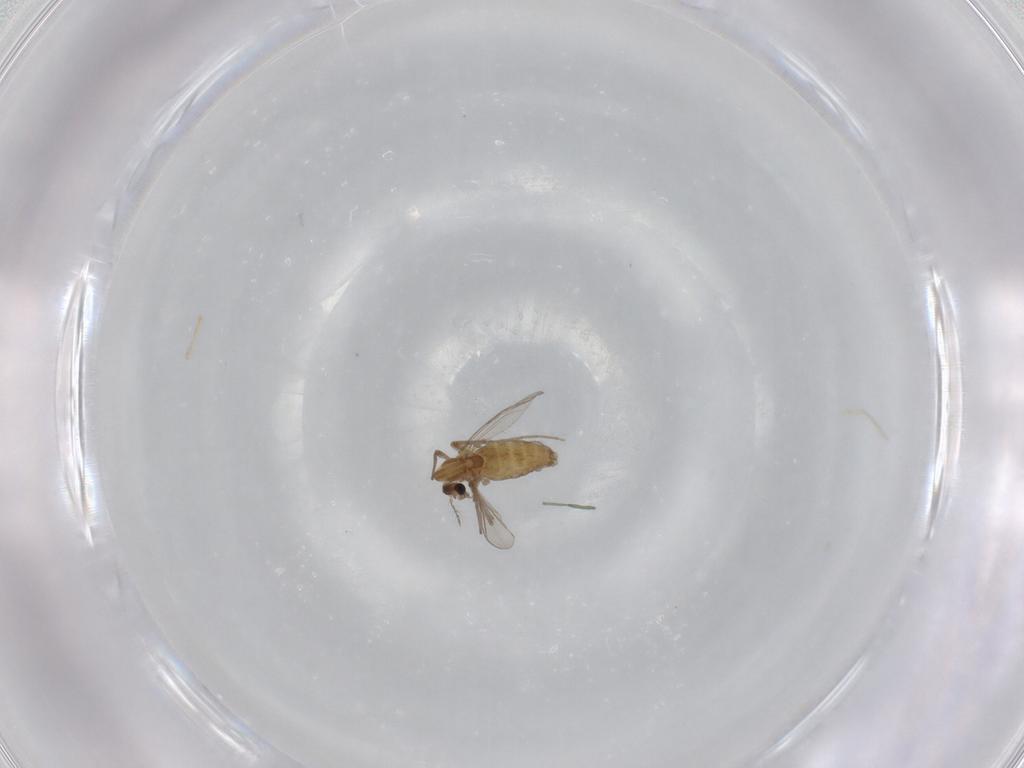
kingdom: Animalia
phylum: Arthropoda
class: Insecta
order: Diptera
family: Chironomidae
